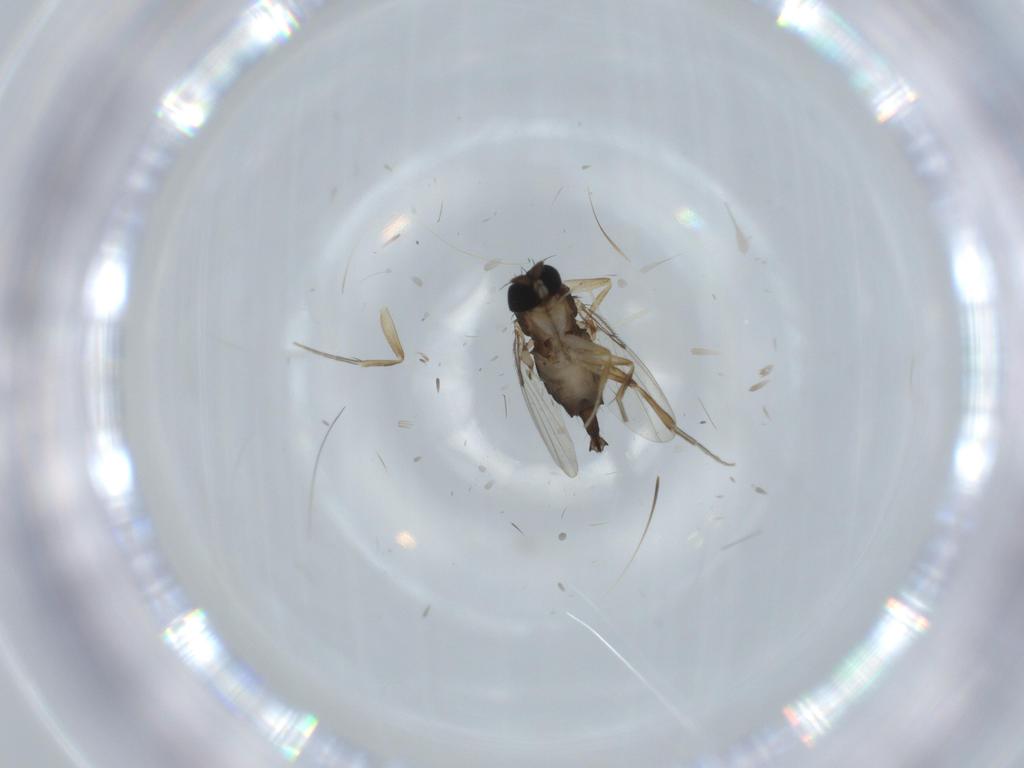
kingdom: Animalia
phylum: Arthropoda
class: Insecta
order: Diptera
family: Phoridae
